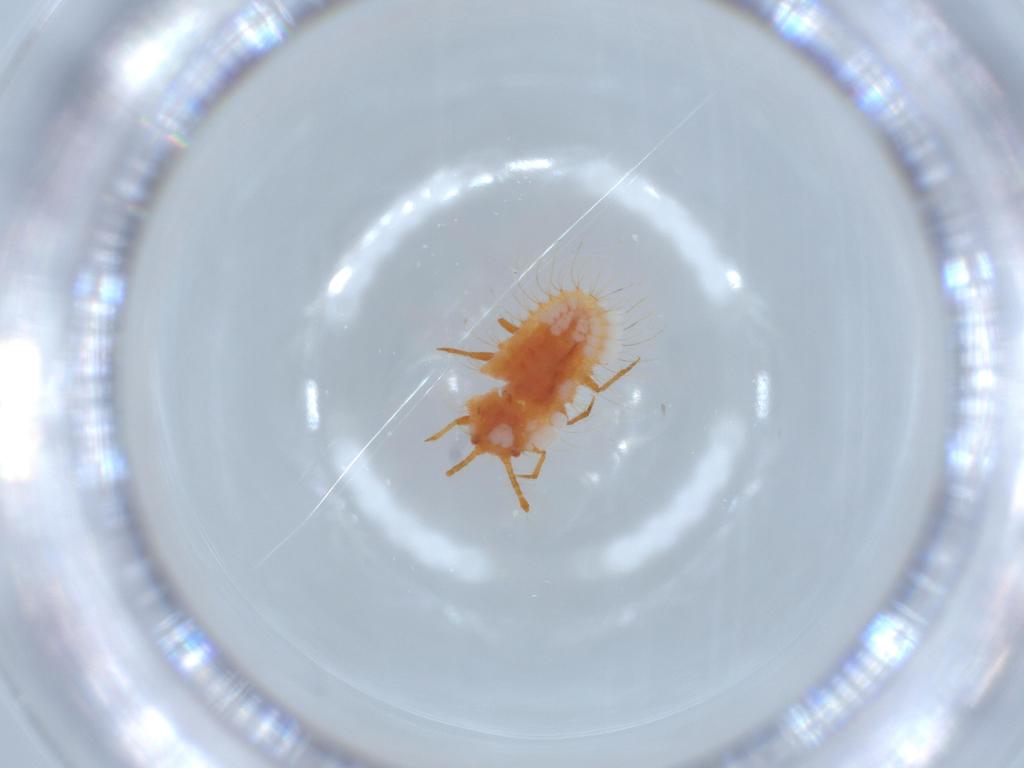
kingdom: Animalia
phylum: Arthropoda
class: Insecta
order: Hemiptera
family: Coccoidea_incertae_sedis
